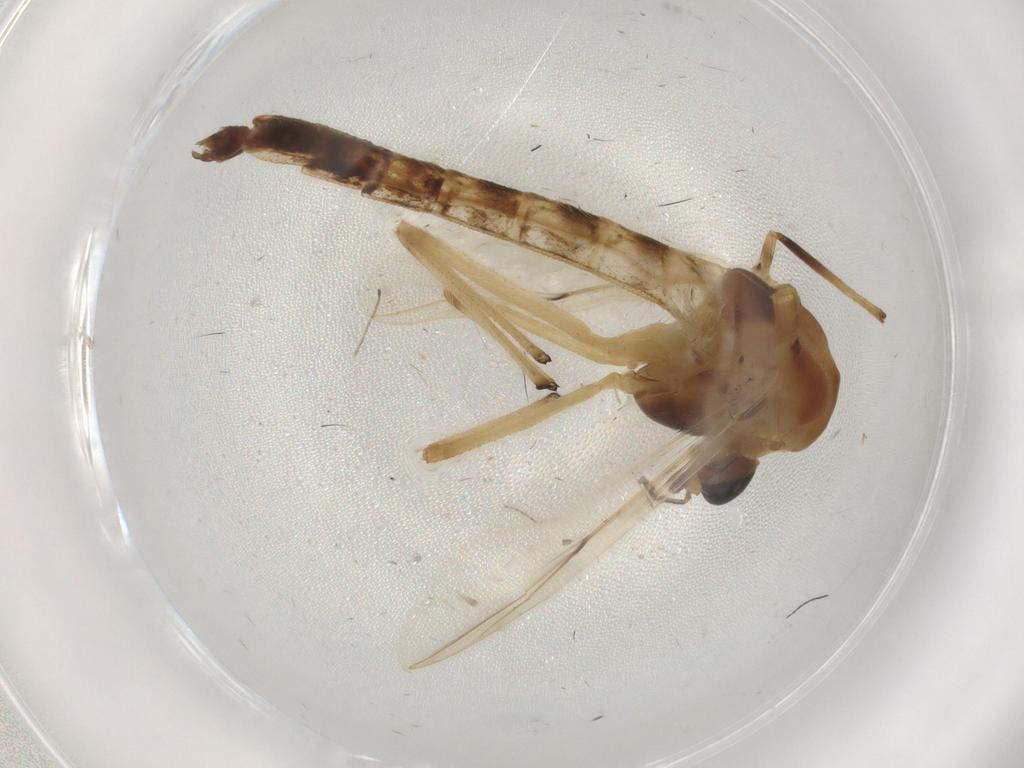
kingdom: Animalia
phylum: Arthropoda
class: Insecta
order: Diptera
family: Chironomidae
